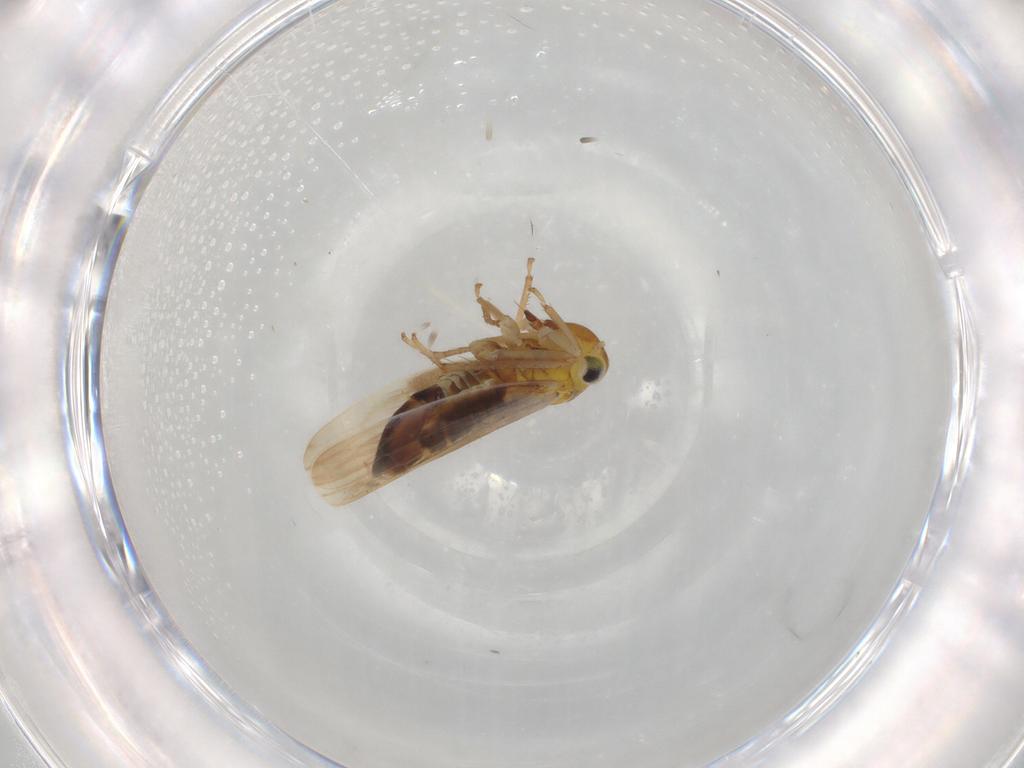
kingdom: Animalia
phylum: Arthropoda
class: Insecta
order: Hemiptera
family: Cicadellidae
